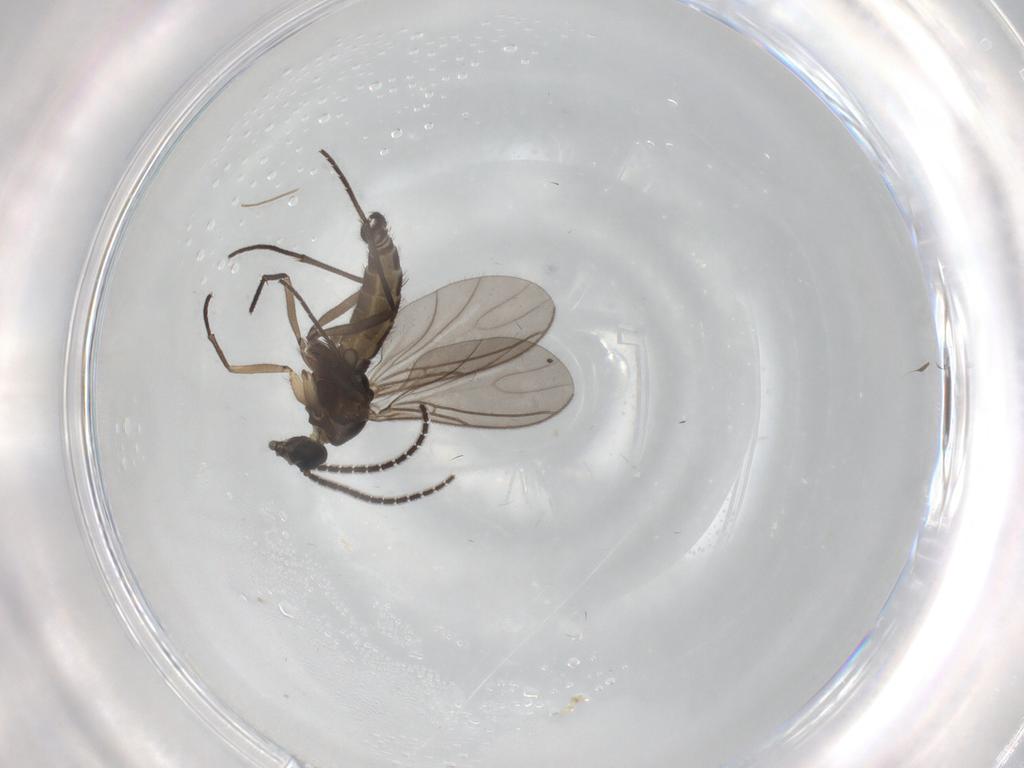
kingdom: Animalia
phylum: Arthropoda
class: Insecta
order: Diptera
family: Sciaridae
